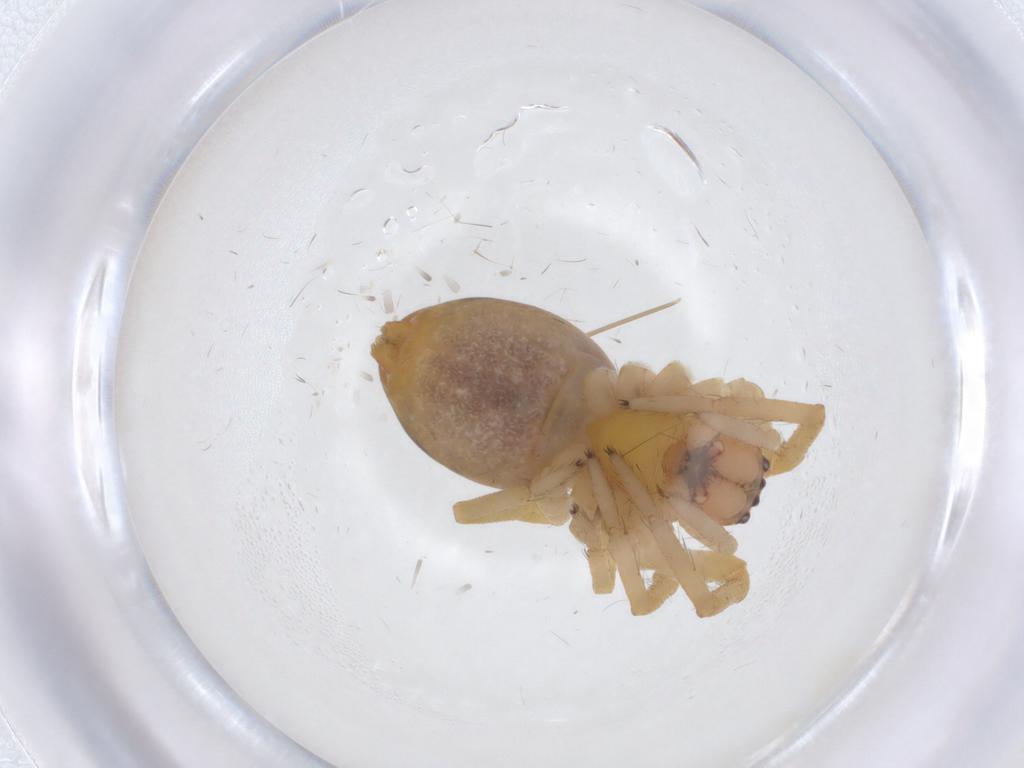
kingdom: Animalia
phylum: Arthropoda
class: Arachnida
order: Araneae
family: Mimetidae
